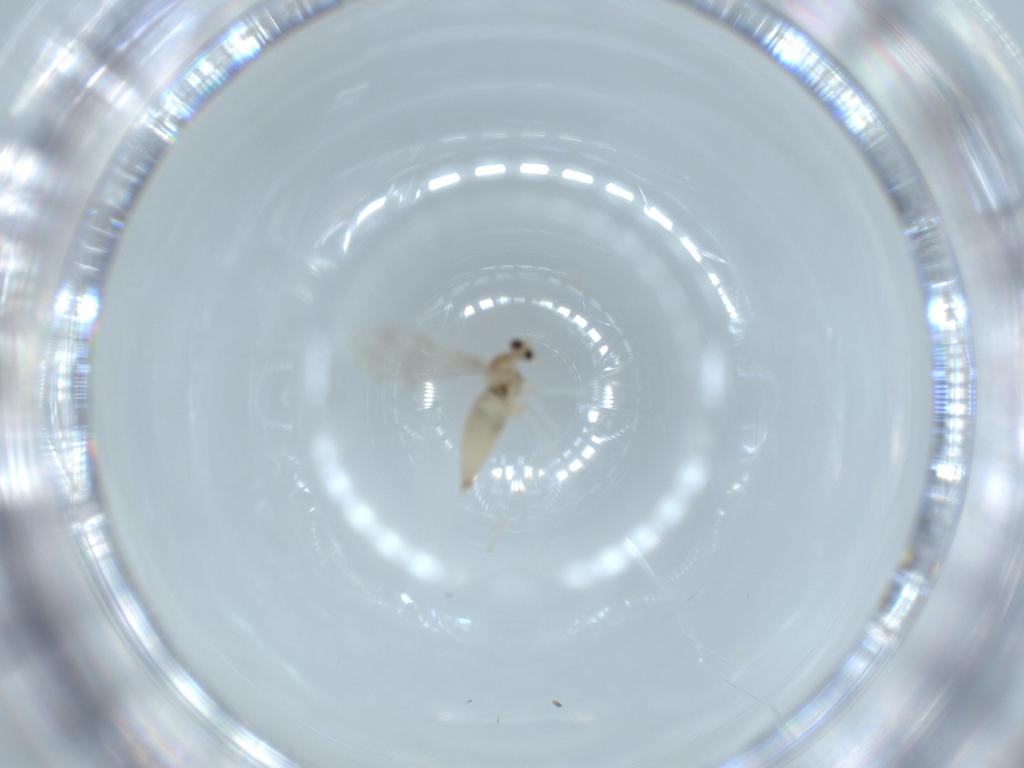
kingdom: Animalia
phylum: Arthropoda
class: Insecta
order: Diptera
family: Cecidomyiidae
